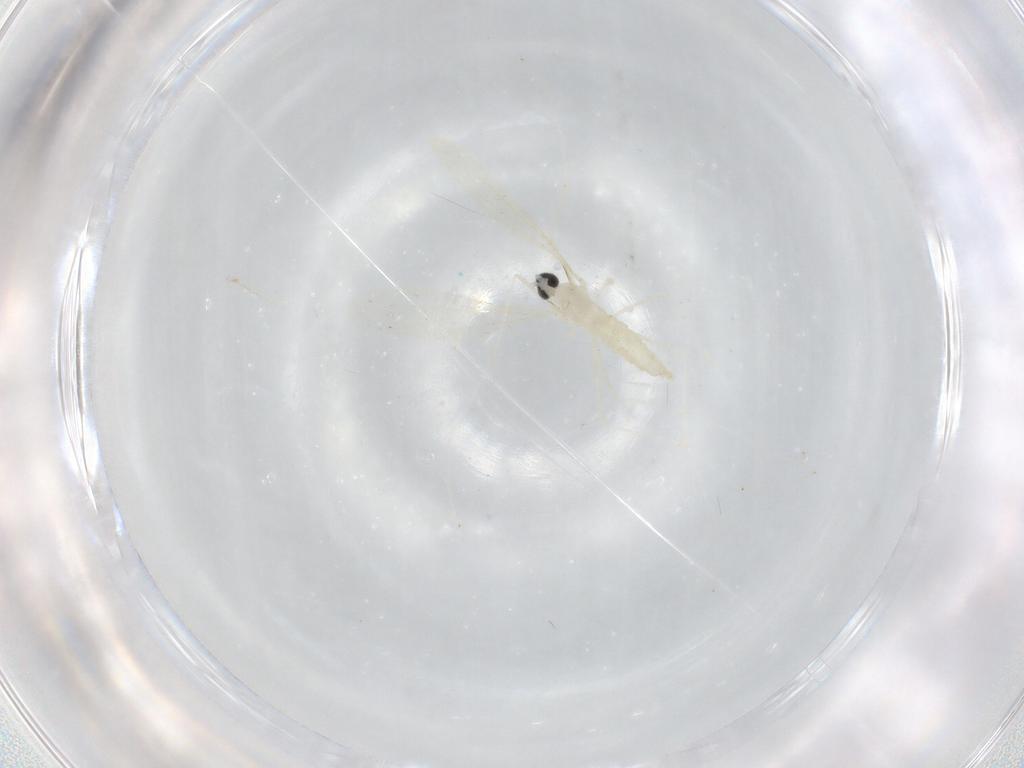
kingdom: Animalia
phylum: Arthropoda
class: Insecta
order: Diptera
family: Cecidomyiidae
